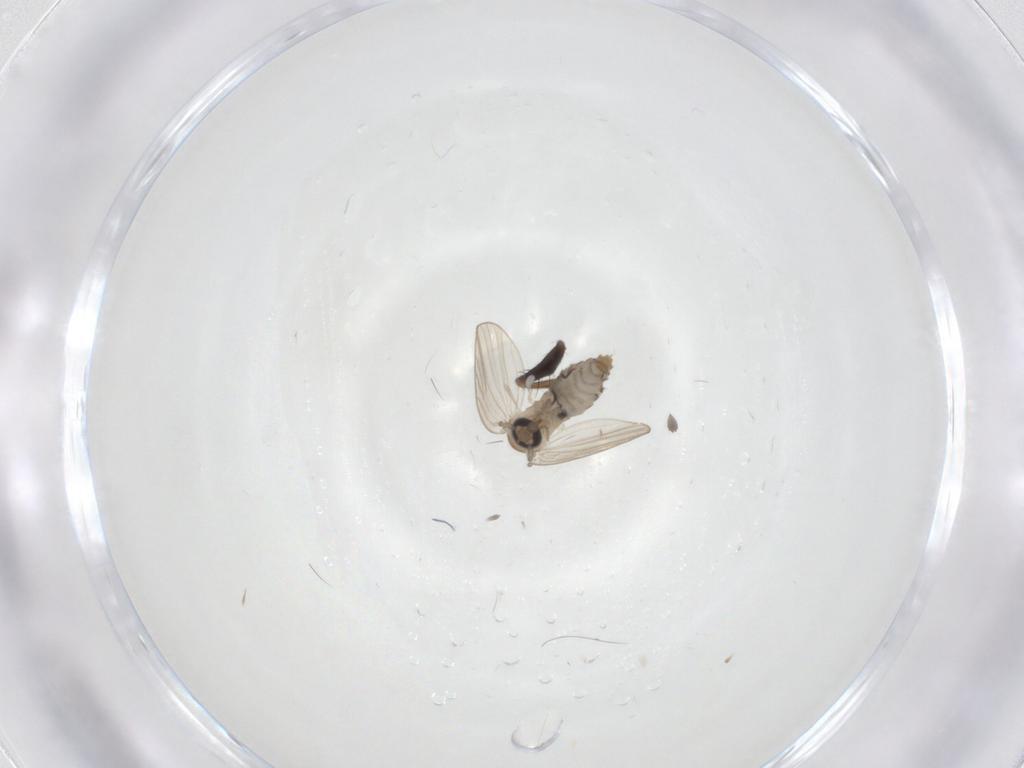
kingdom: Animalia
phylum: Arthropoda
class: Insecta
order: Diptera
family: Psychodidae
